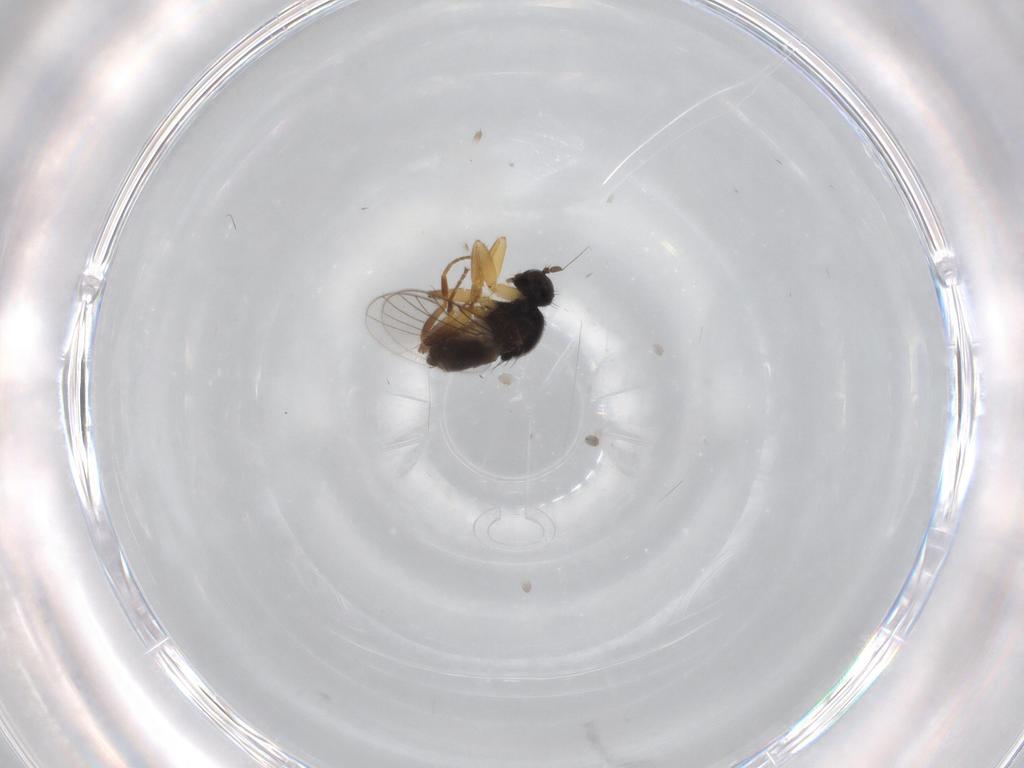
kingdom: Animalia
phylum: Arthropoda
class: Insecta
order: Diptera
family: Hybotidae
